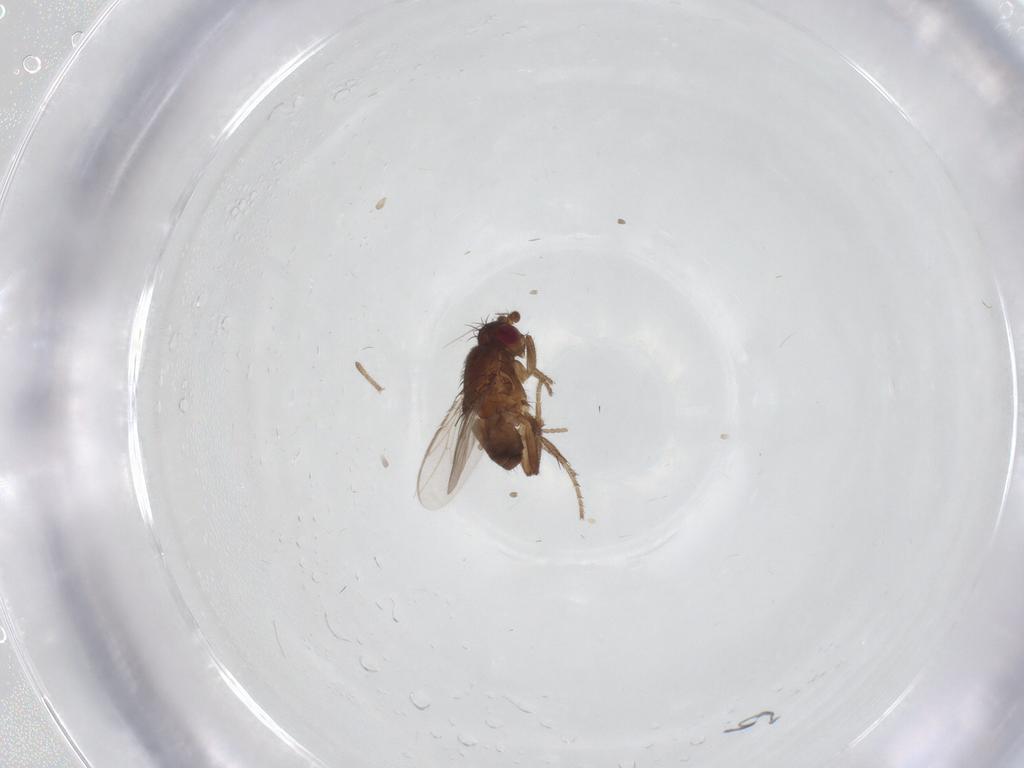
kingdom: Animalia
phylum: Arthropoda
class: Insecta
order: Diptera
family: Sphaeroceridae
